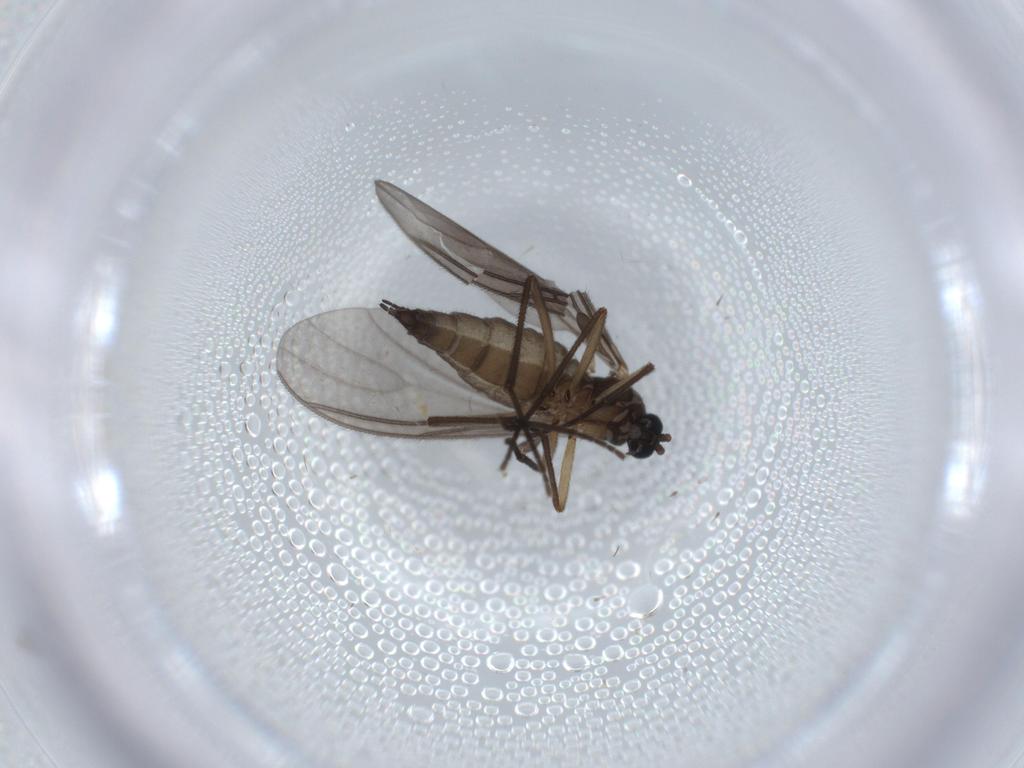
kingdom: Animalia
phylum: Arthropoda
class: Insecta
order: Diptera
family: Sciaridae
